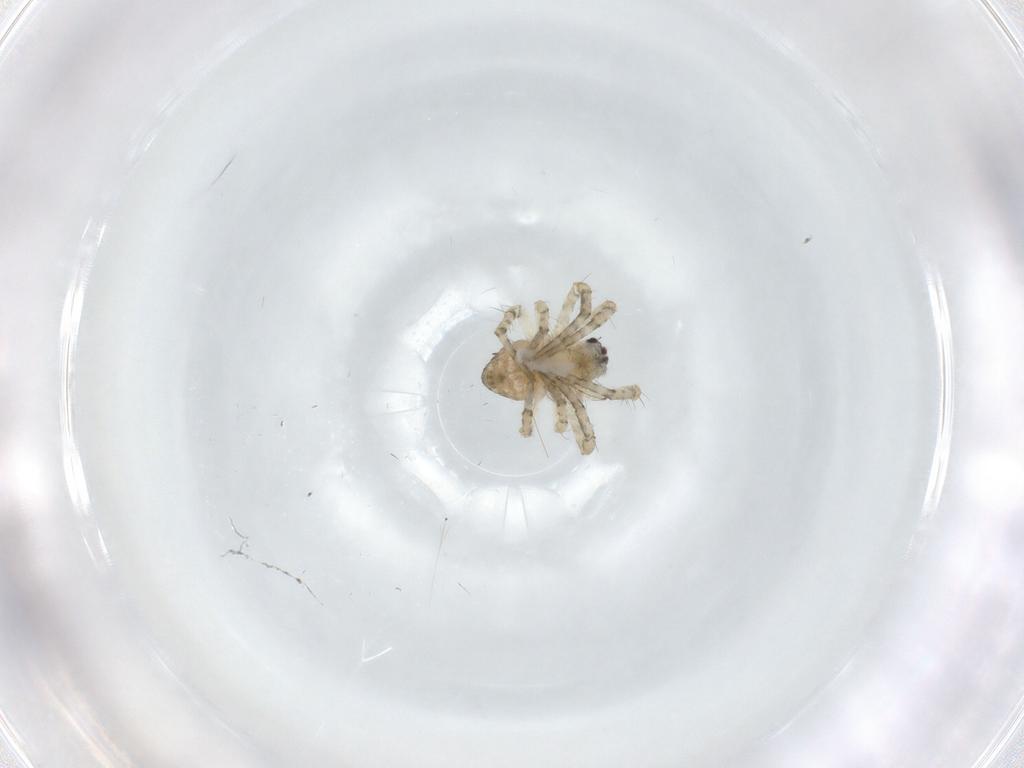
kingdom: Animalia
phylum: Arthropoda
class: Arachnida
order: Araneae
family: Araneidae
